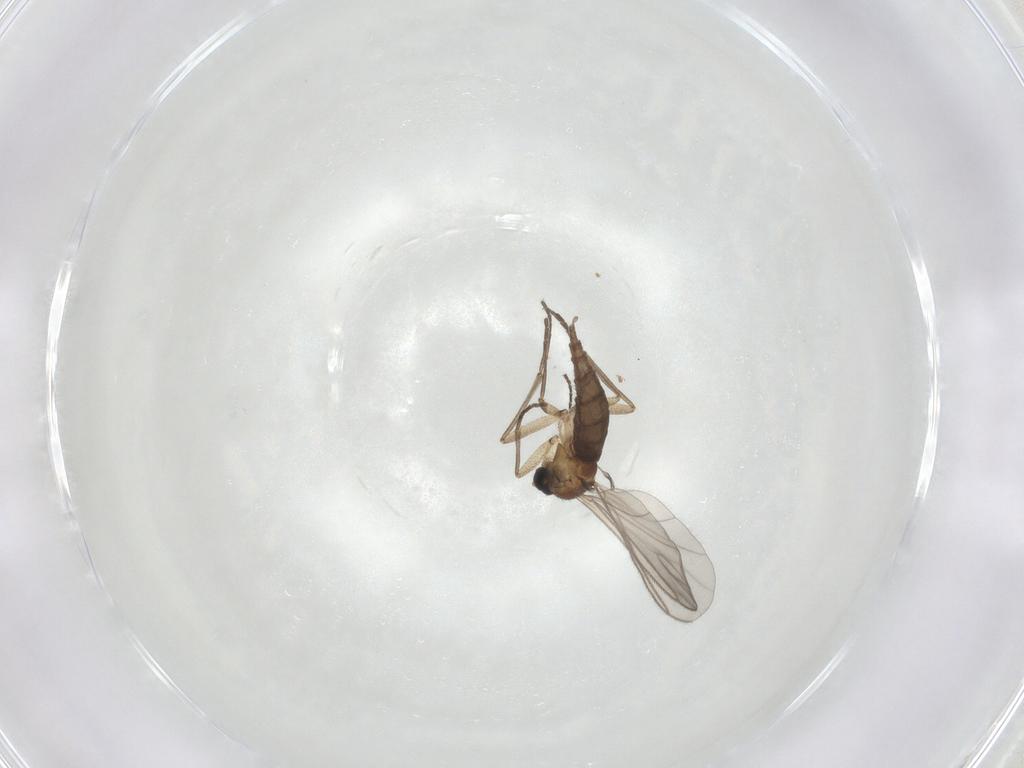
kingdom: Animalia
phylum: Arthropoda
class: Insecta
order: Diptera
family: Sciaridae
